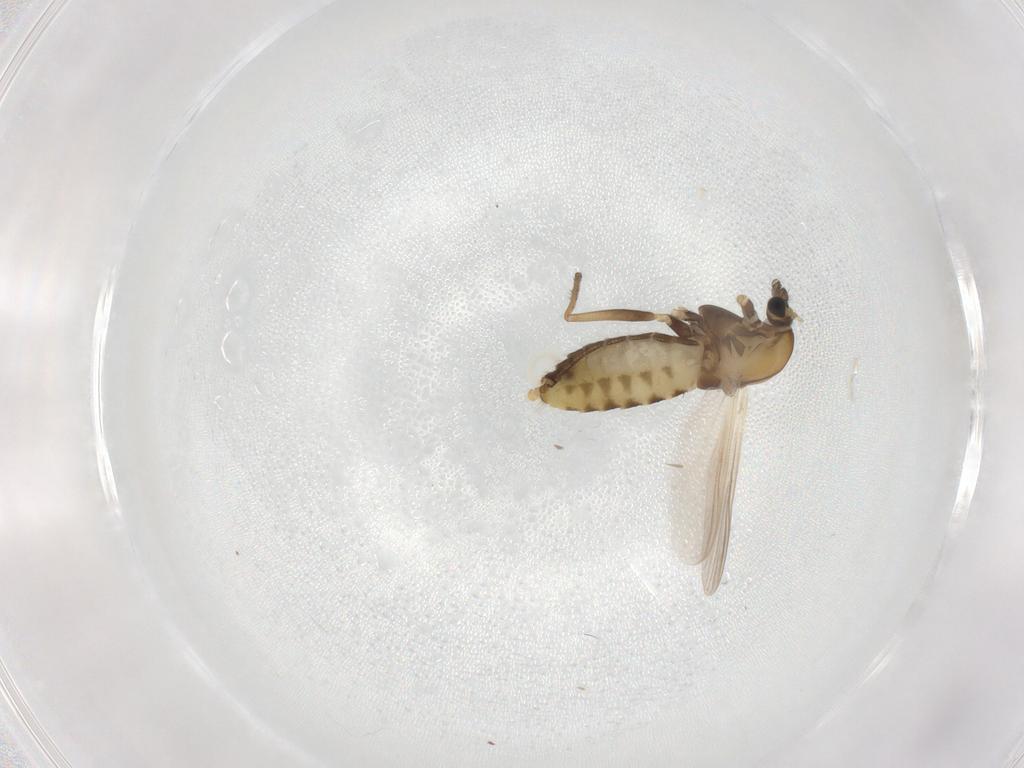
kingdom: Animalia
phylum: Arthropoda
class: Insecta
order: Diptera
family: Chironomidae
